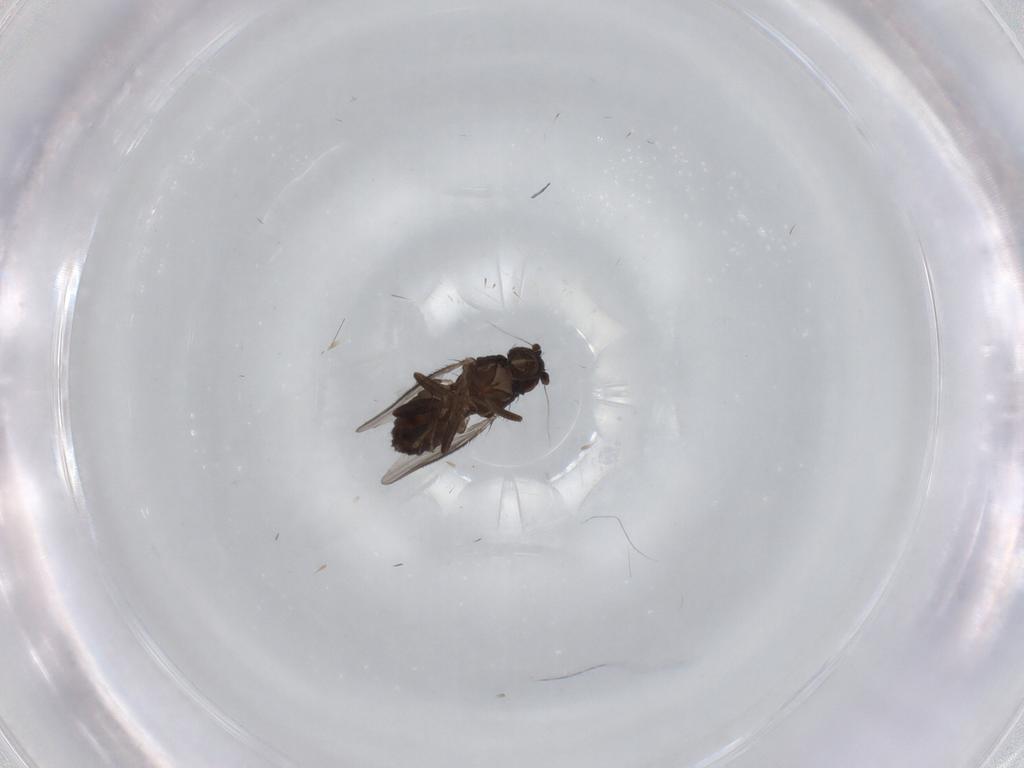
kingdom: Animalia
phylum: Arthropoda
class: Insecta
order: Diptera
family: Sphaeroceridae
